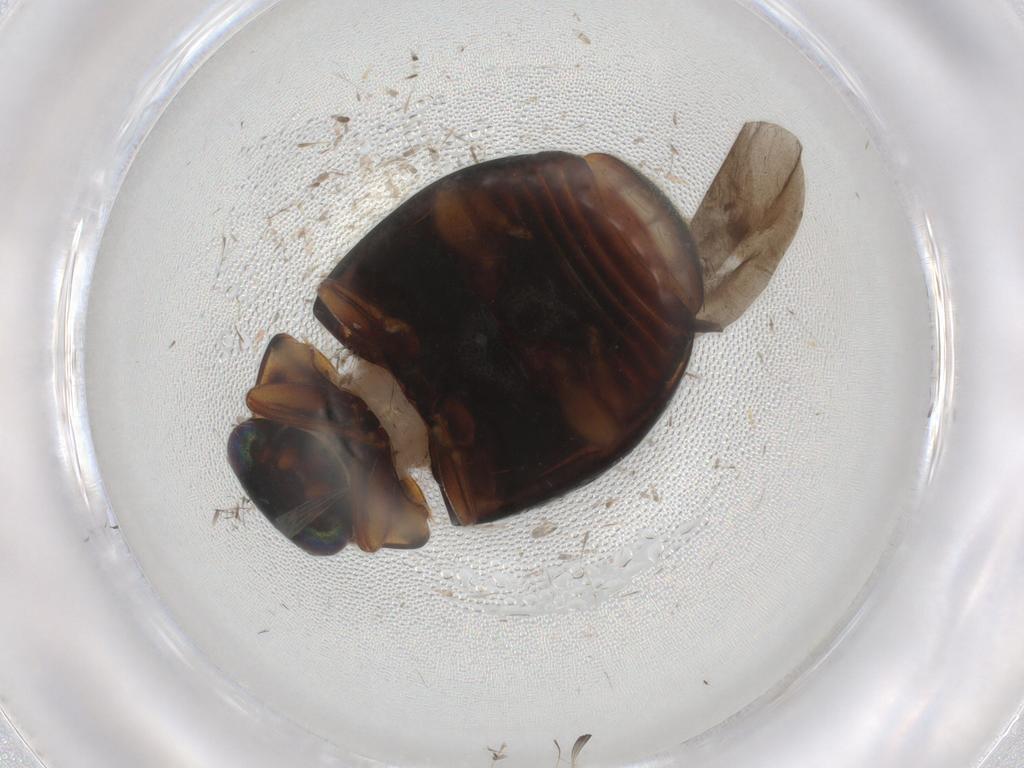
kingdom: Animalia
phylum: Arthropoda
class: Insecta
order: Coleoptera
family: Coccinellidae
